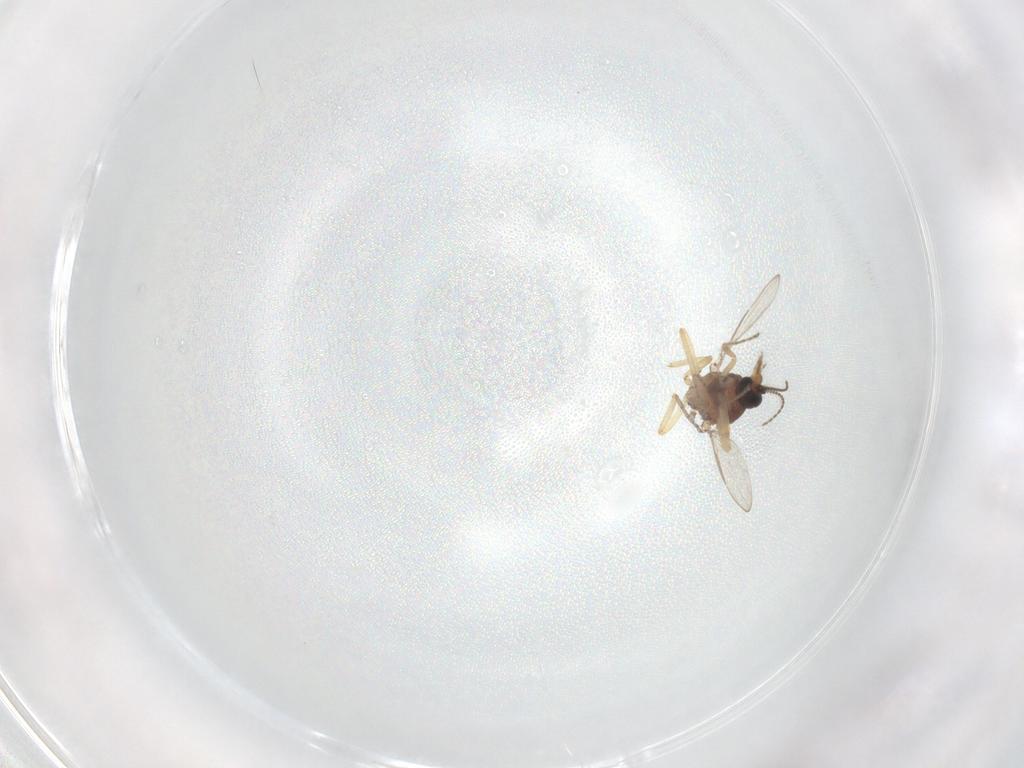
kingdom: Animalia
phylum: Arthropoda
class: Insecta
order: Diptera
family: Ceratopogonidae
